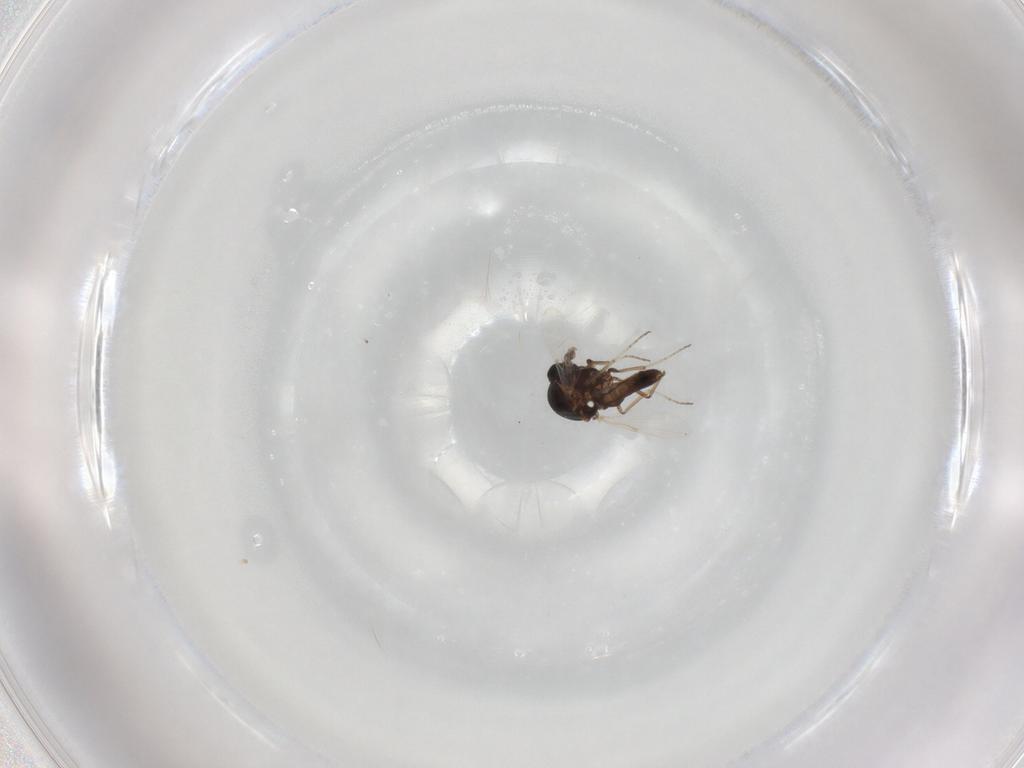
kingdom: Animalia
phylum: Arthropoda
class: Insecta
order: Diptera
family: Ceratopogonidae
